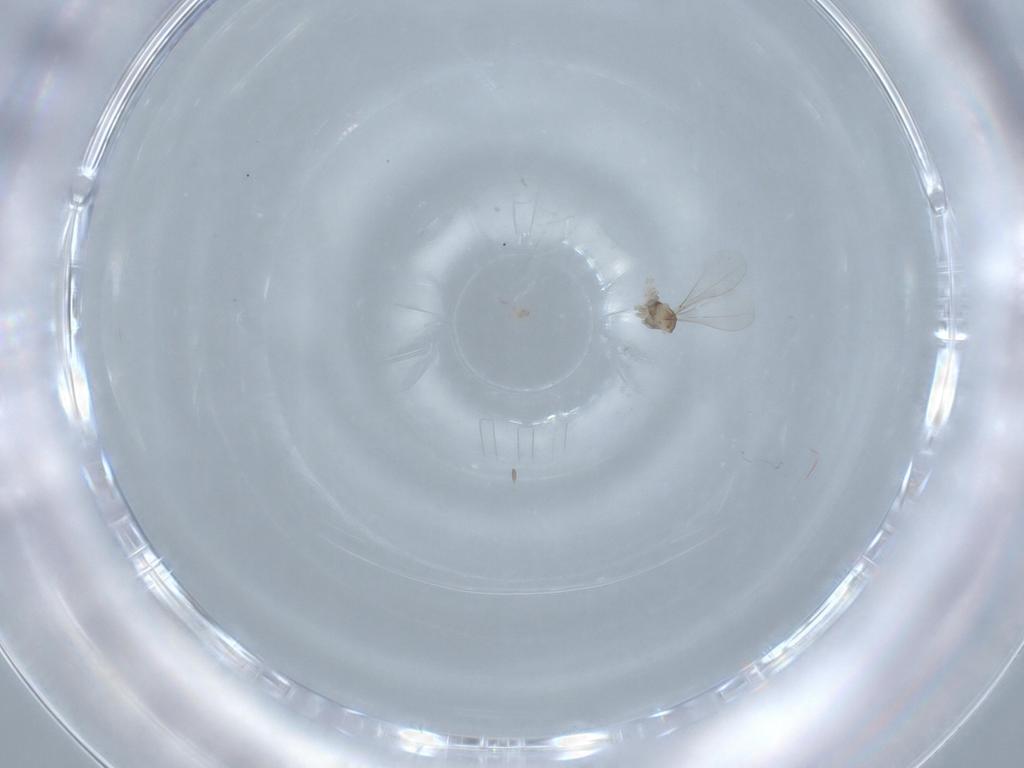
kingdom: Animalia
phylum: Arthropoda
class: Insecta
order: Diptera
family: Cecidomyiidae
